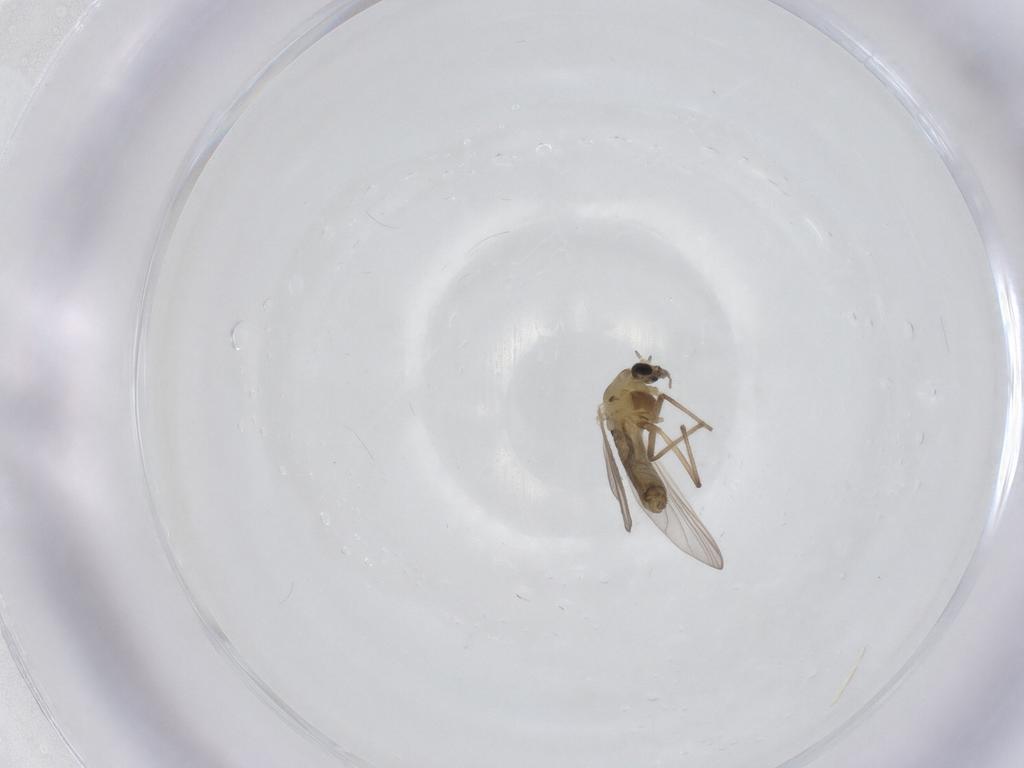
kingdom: Animalia
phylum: Arthropoda
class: Insecta
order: Diptera
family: Chironomidae
